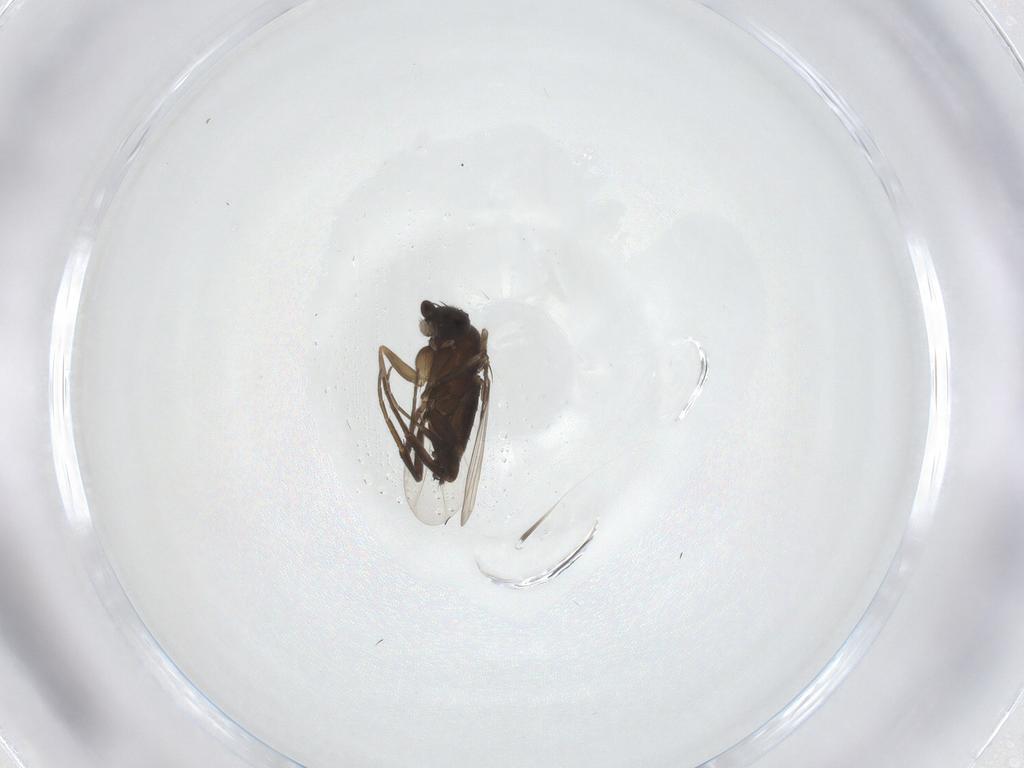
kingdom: Animalia
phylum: Arthropoda
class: Insecta
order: Diptera
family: Phoridae
